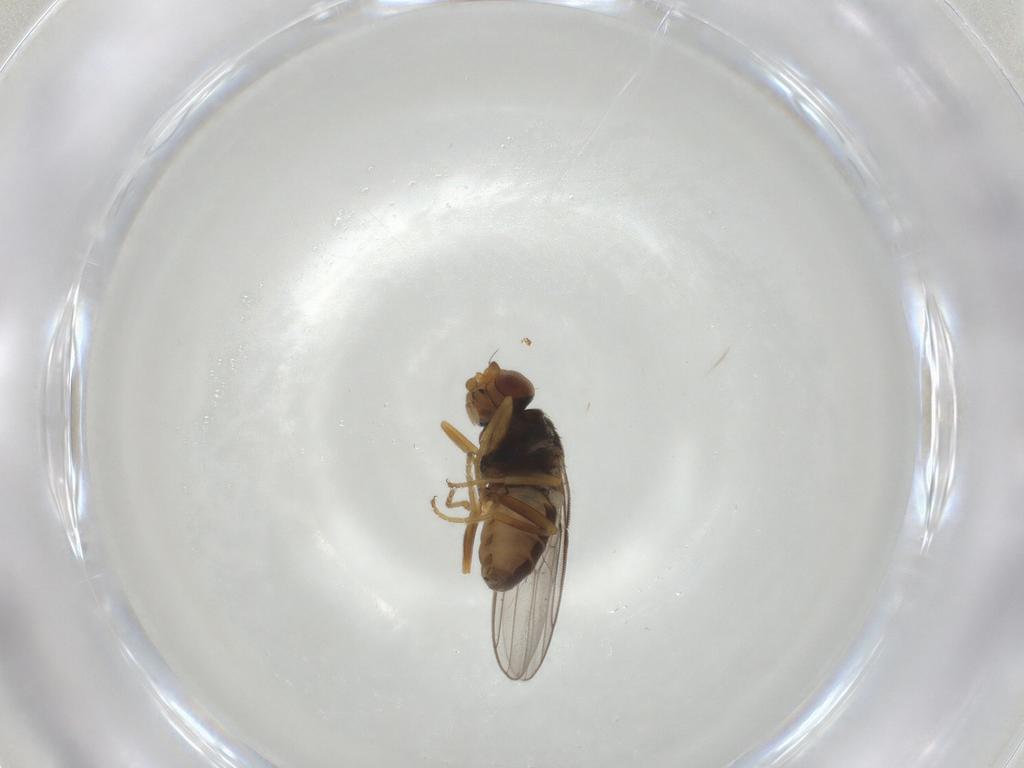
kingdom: Animalia
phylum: Arthropoda
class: Insecta
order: Diptera
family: Chloropidae
